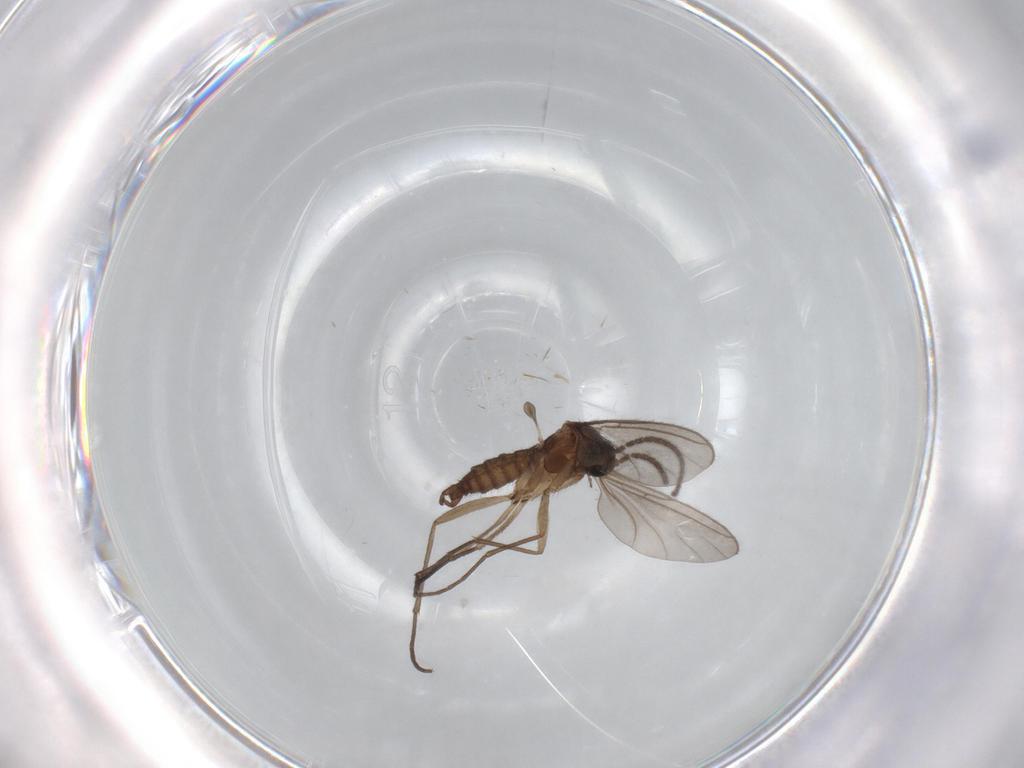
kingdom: Animalia
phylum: Arthropoda
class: Insecta
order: Diptera
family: Sciaridae
